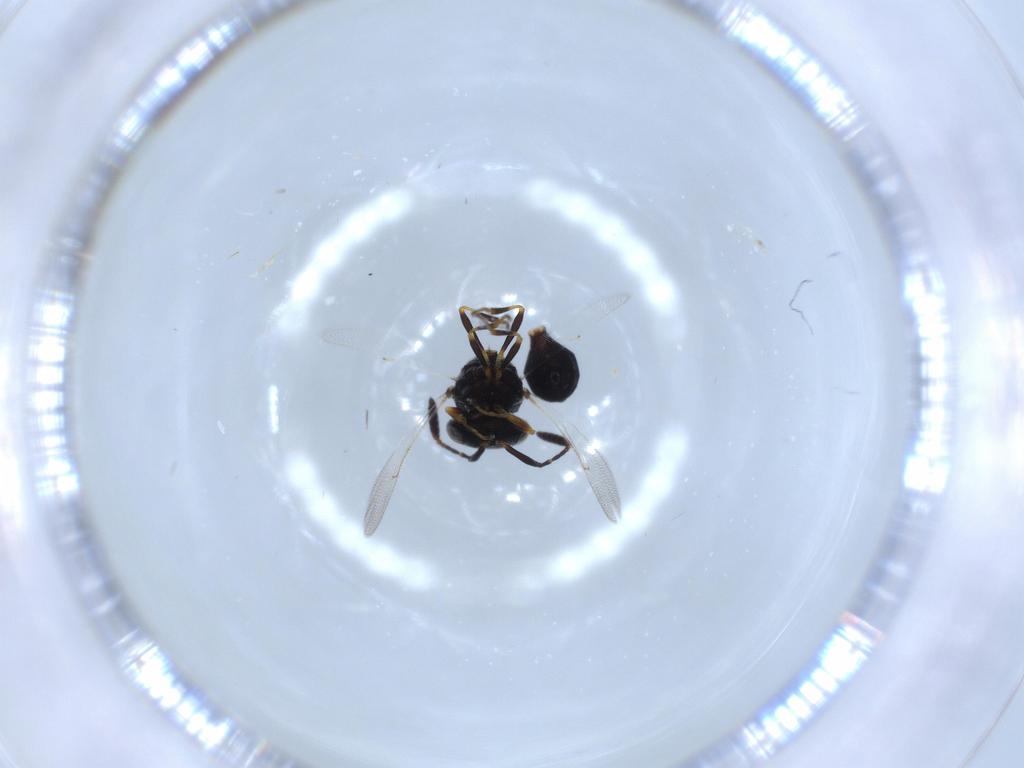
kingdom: Animalia
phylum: Arthropoda
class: Insecta
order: Hymenoptera
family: Scelionidae
